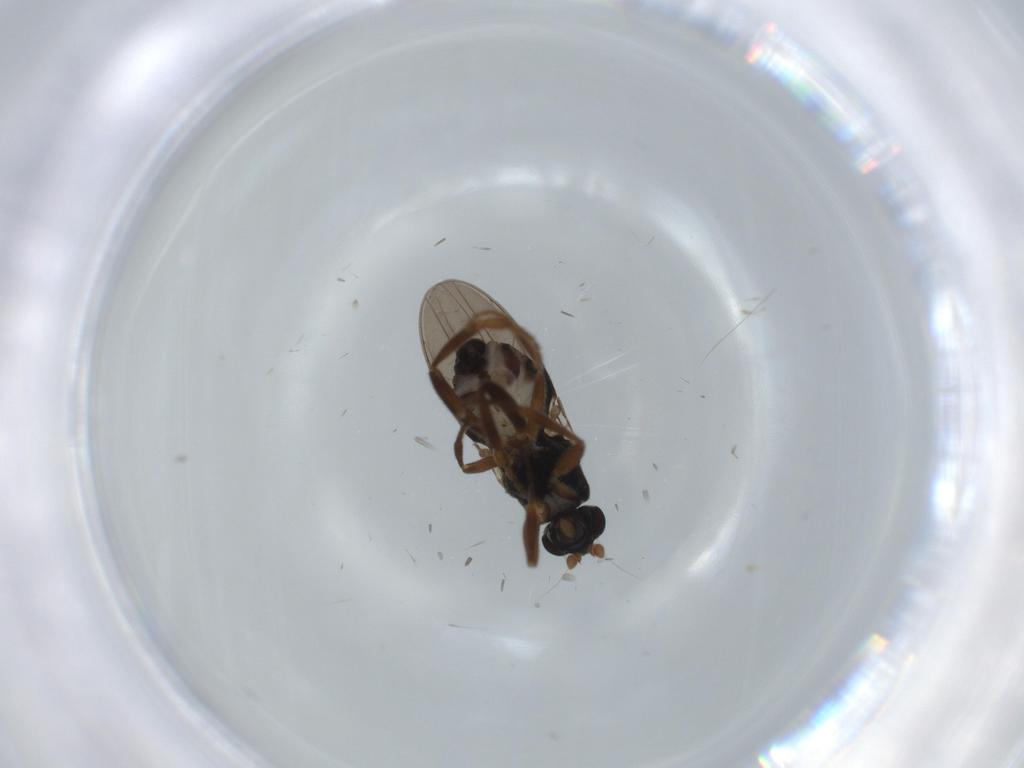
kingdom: Animalia
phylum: Arthropoda
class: Insecta
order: Diptera
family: Sphaeroceridae
